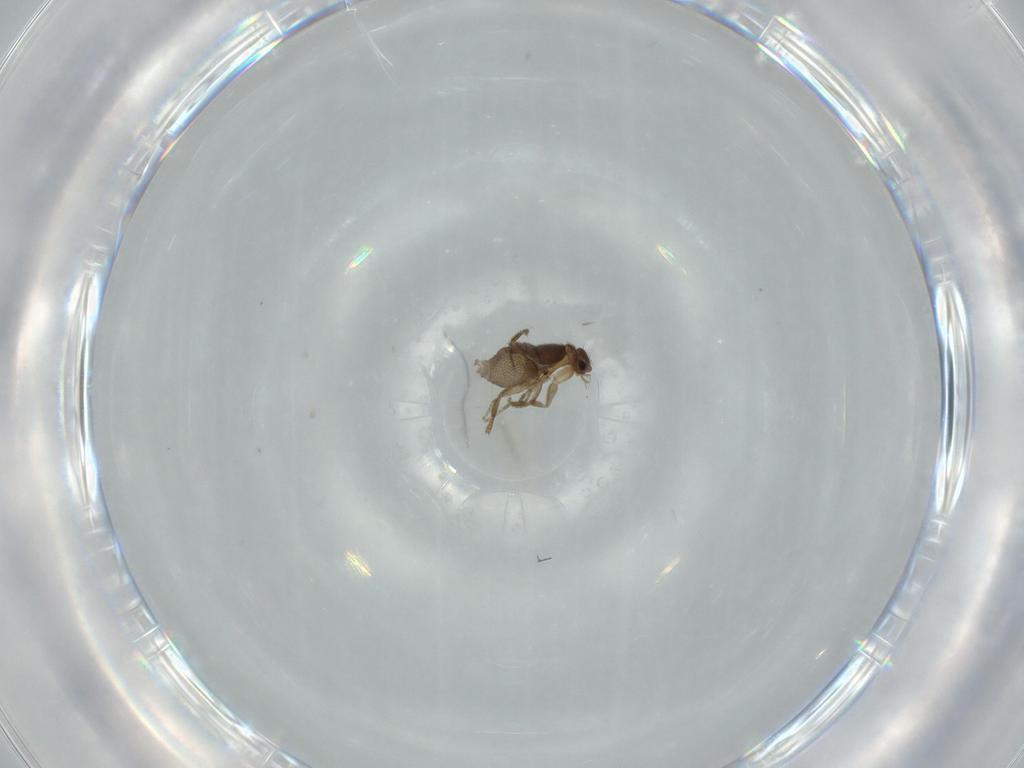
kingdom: Animalia
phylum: Arthropoda
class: Insecta
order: Diptera
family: Phoridae
